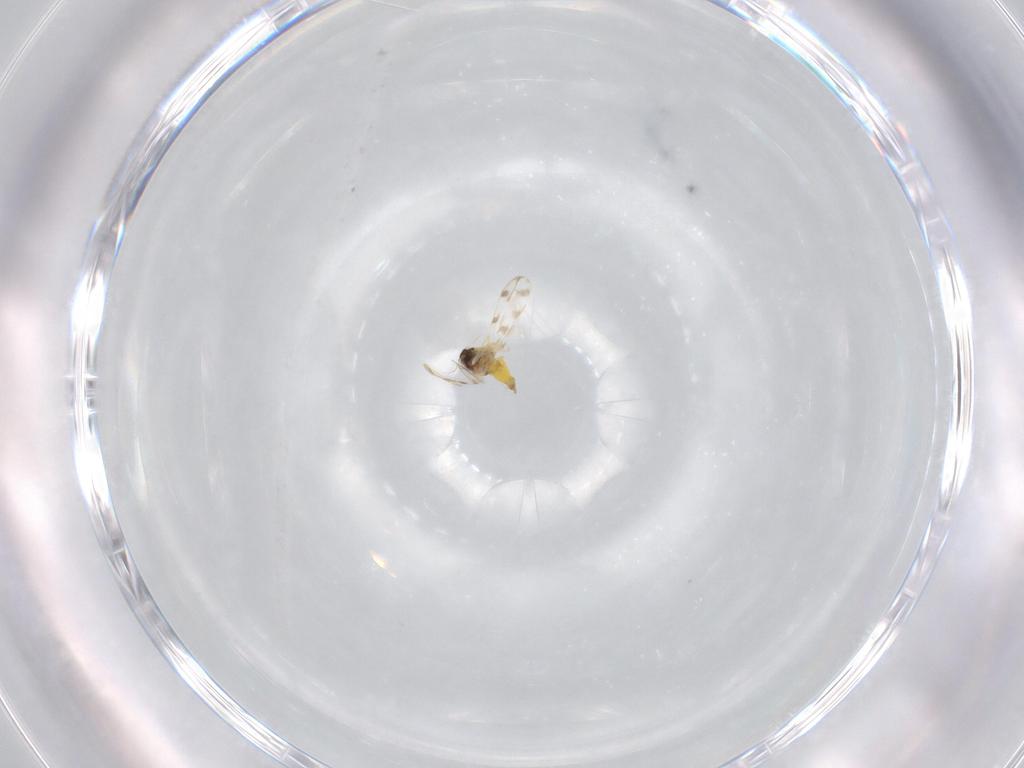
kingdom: Animalia
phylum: Arthropoda
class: Insecta
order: Hemiptera
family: Aleyrodidae
